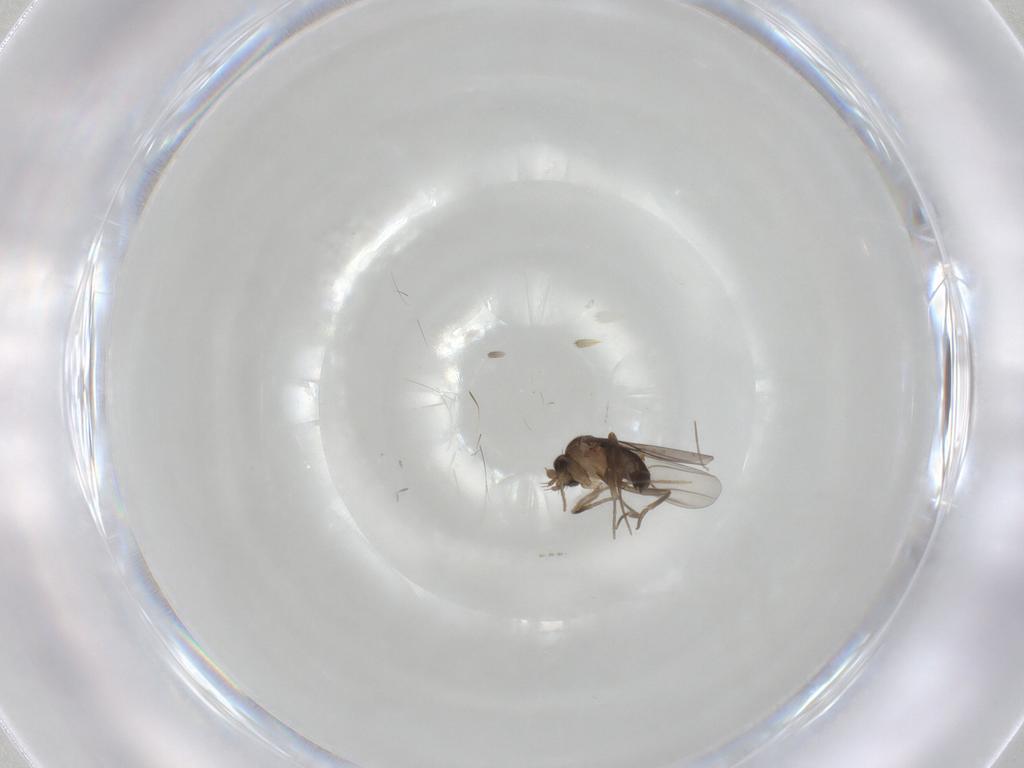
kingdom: Animalia
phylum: Arthropoda
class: Insecta
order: Diptera
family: Phoridae
